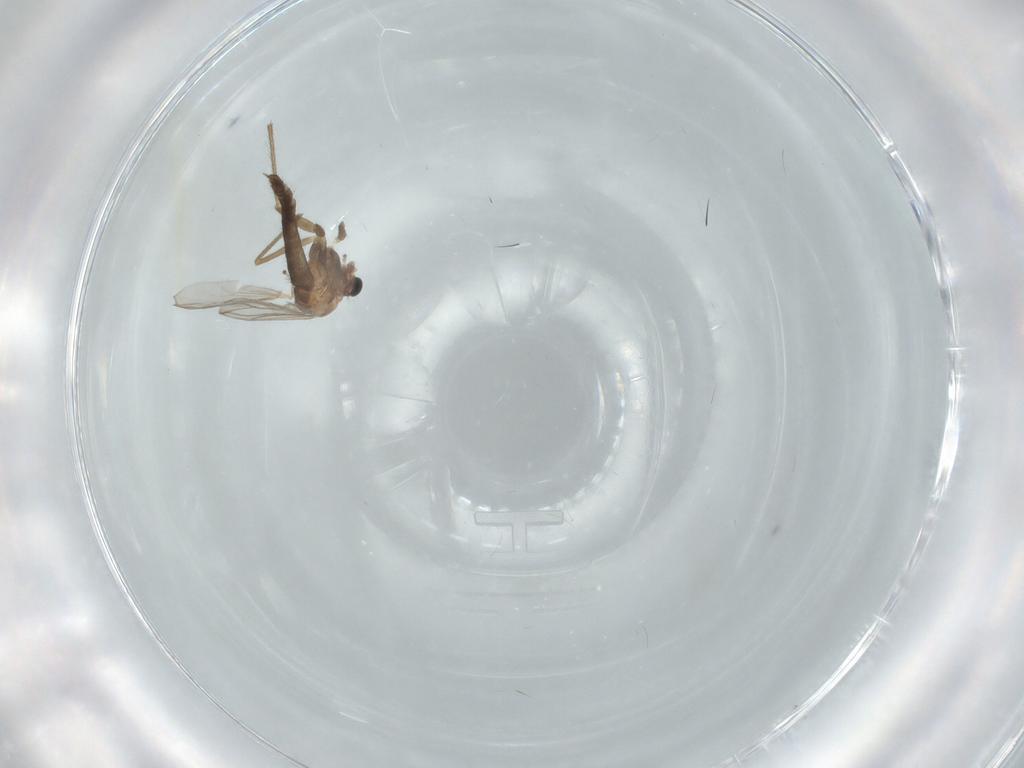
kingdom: Animalia
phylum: Arthropoda
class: Insecta
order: Diptera
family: Chironomidae
